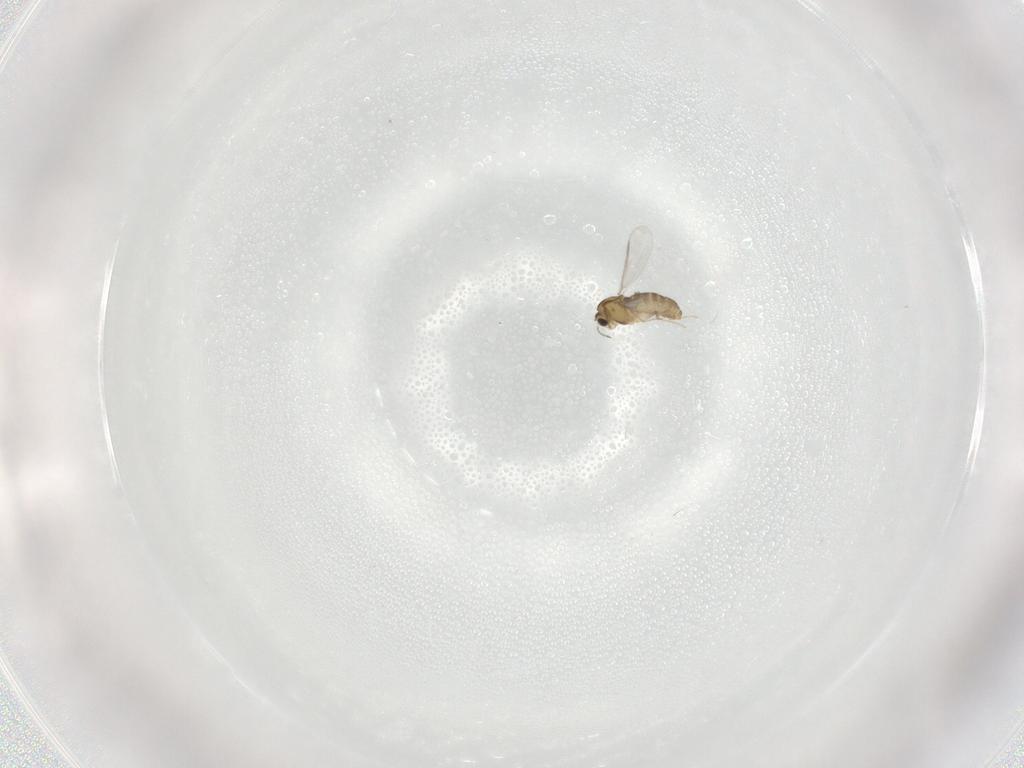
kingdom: Animalia
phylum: Arthropoda
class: Insecta
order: Diptera
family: Chironomidae
